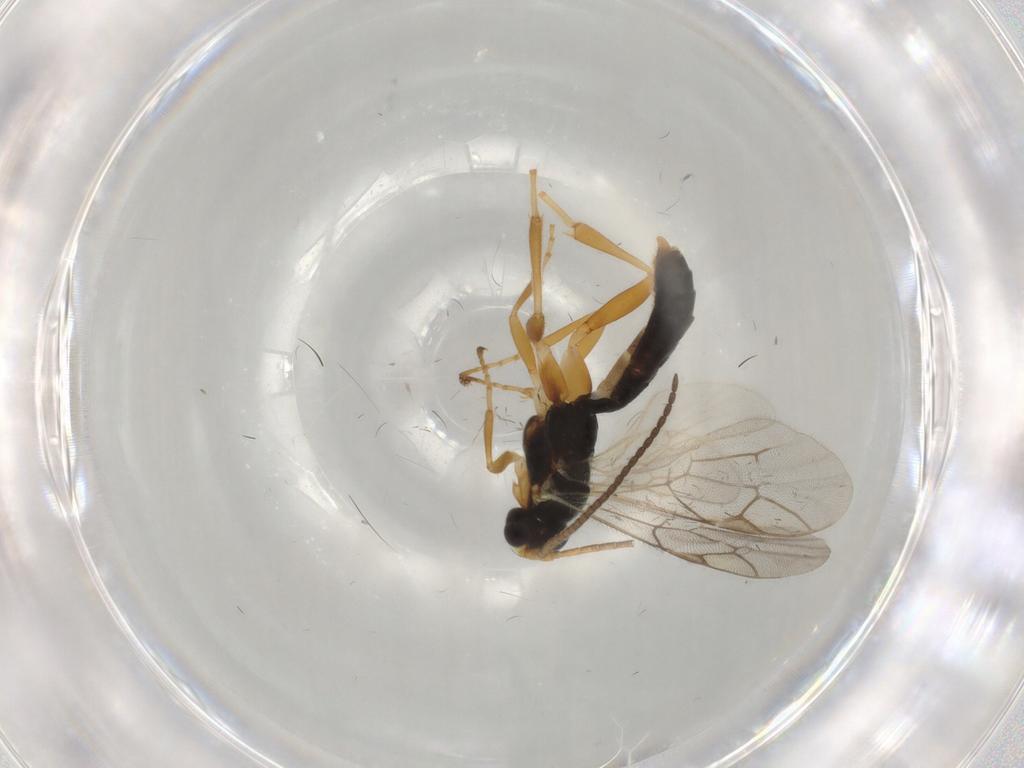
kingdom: Animalia
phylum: Arthropoda
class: Insecta
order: Hymenoptera
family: Ichneumonidae
